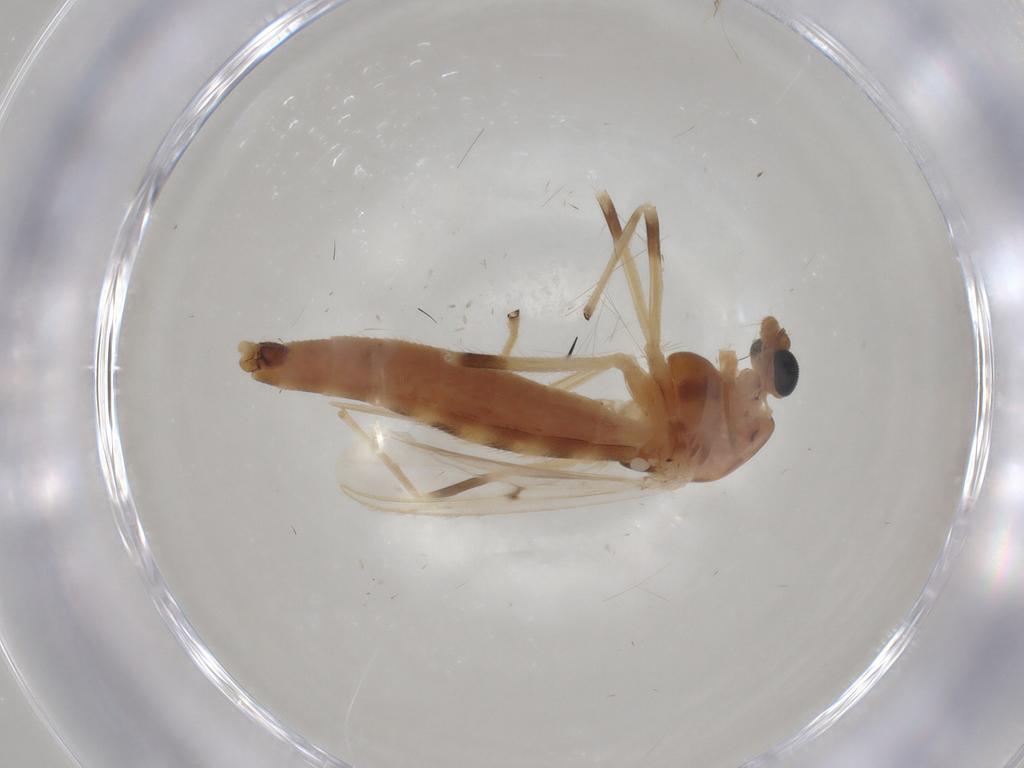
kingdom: Animalia
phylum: Arthropoda
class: Insecta
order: Diptera
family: Chironomidae
